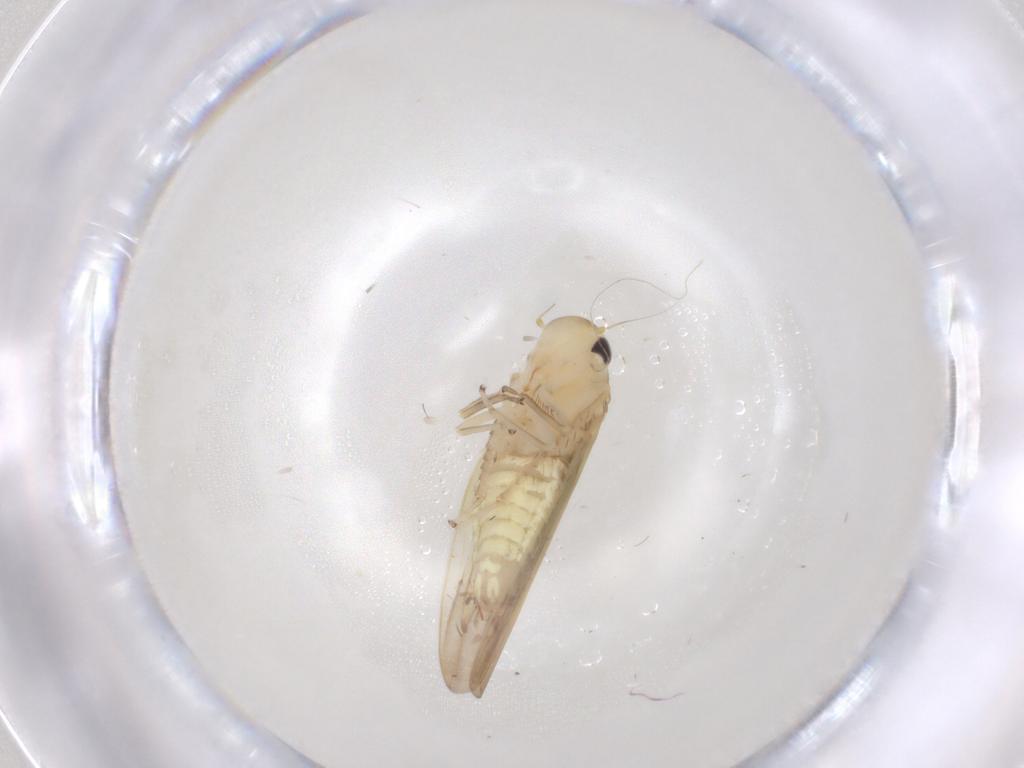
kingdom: Animalia
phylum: Arthropoda
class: Insecta
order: Hemiptera
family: Cicadellidae
